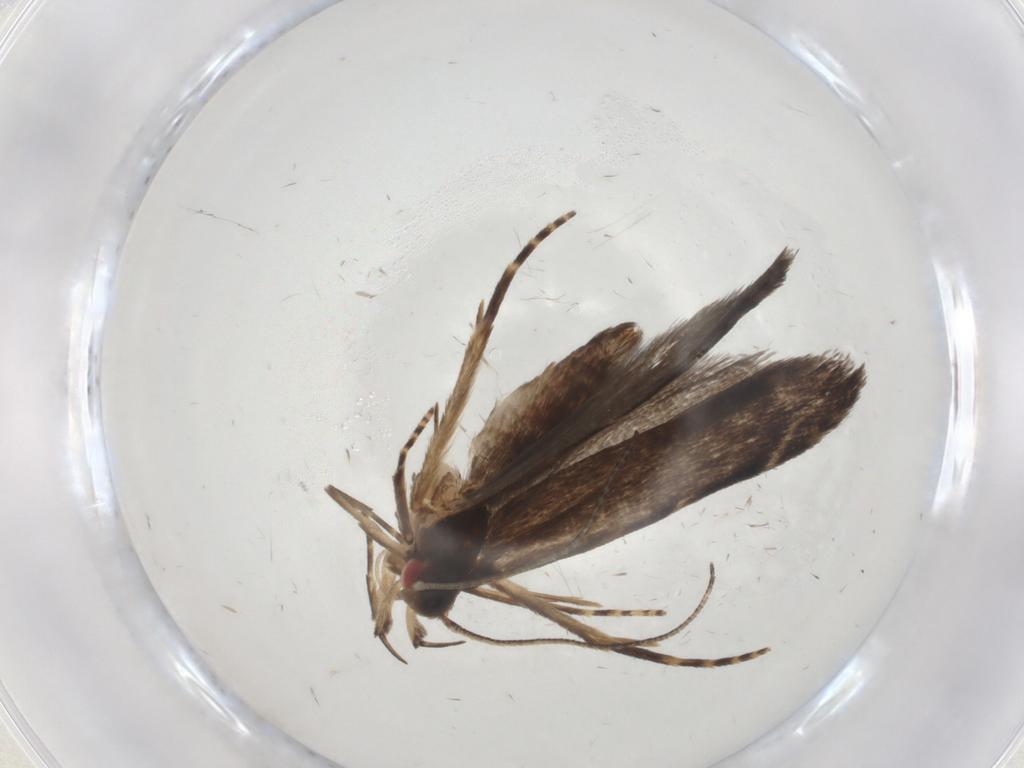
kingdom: Animalia
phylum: Arthropoda
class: Insecta
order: Lepidoptera
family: Gelechiidae
